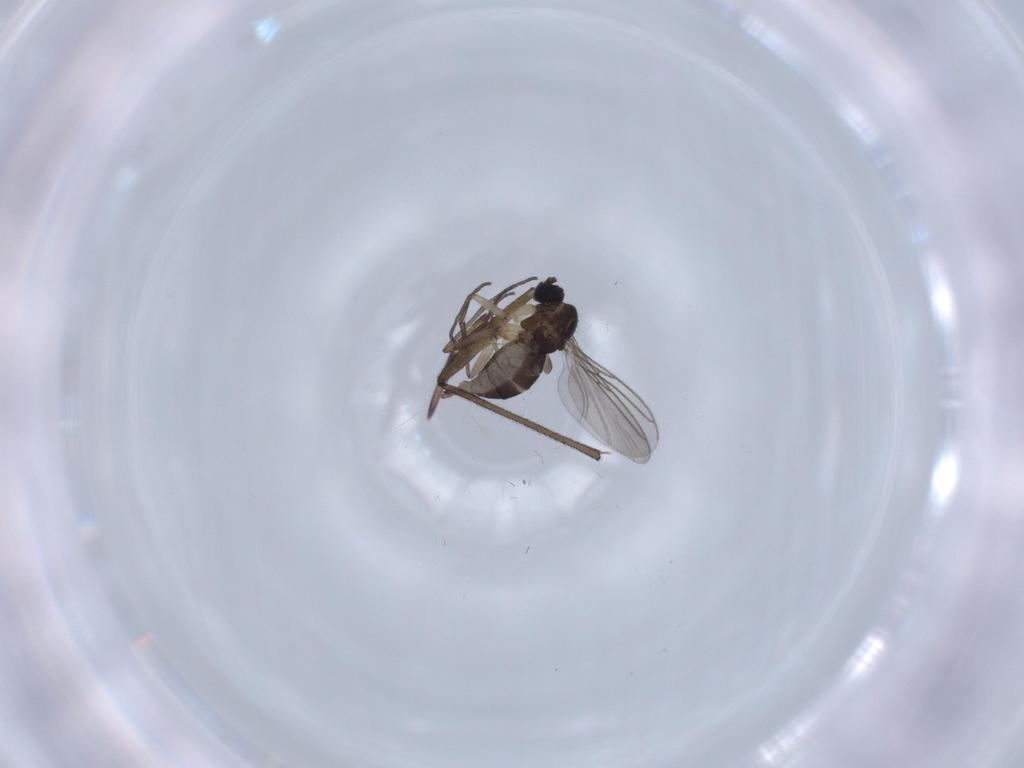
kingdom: Animalia
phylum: Arthropoda
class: Insecta
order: Diptera
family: Sciaridae
